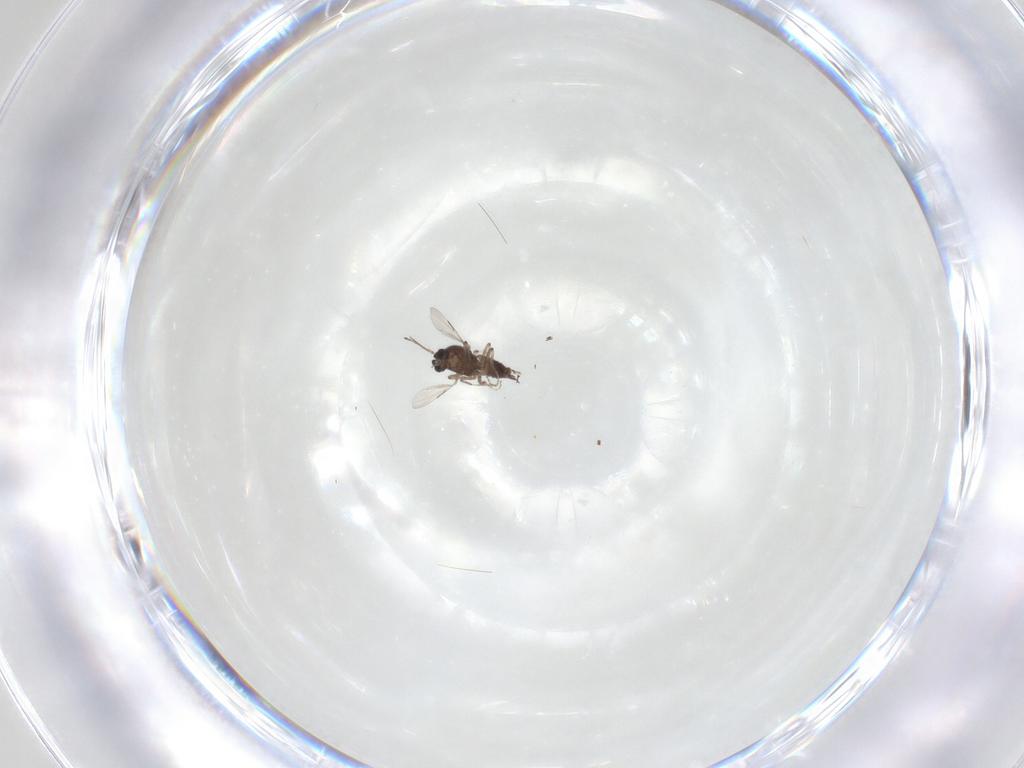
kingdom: Animalia
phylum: Arthropoda
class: Insecta
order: Diptera
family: Ceratopogonidae
